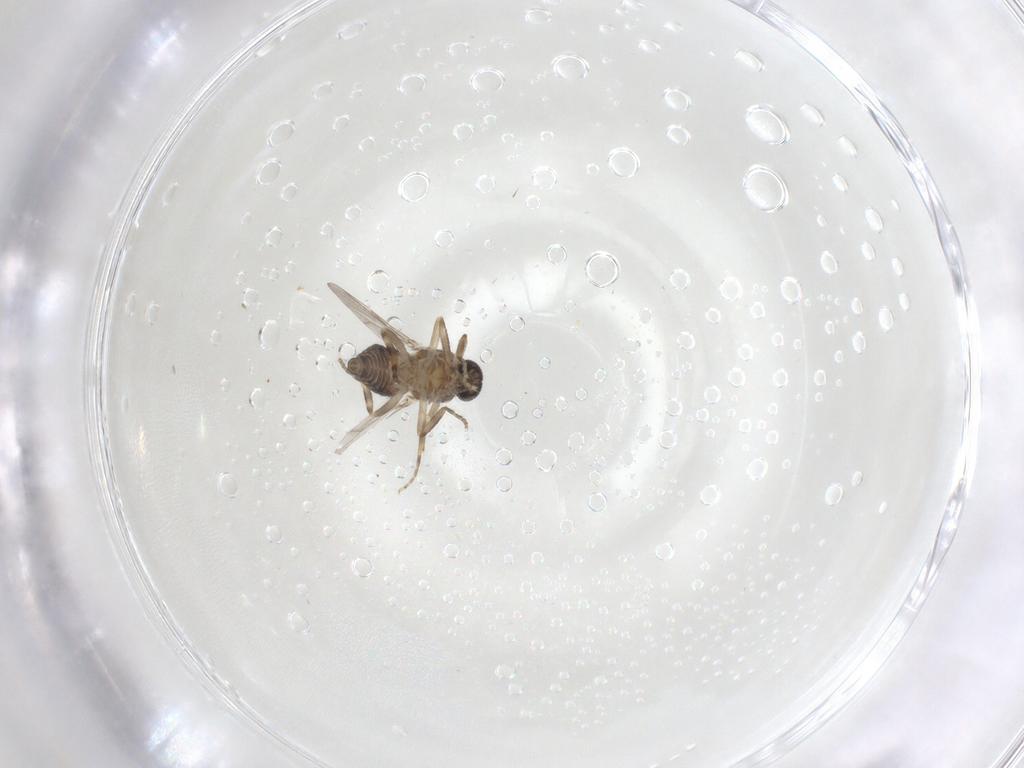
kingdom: Animalia
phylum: Arthropoda
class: Insecta
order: Diptera
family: Ceratopogonidae
